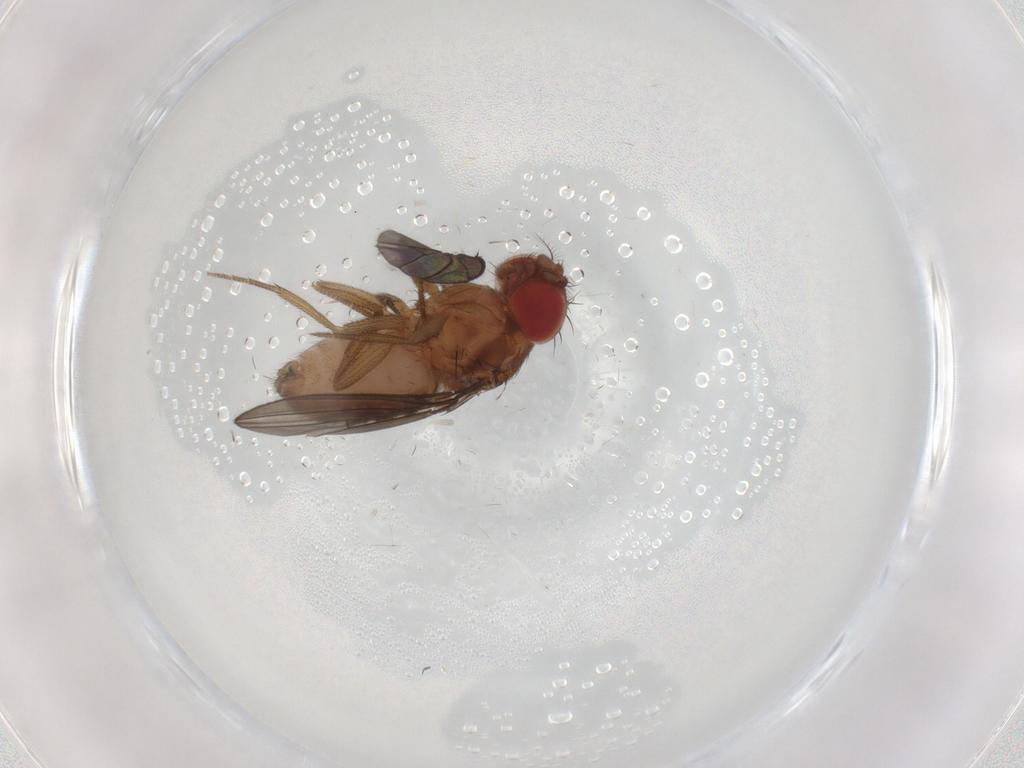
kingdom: Animalia
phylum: Arthropoda
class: Insecta
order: Diptera
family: Drosophilidae
